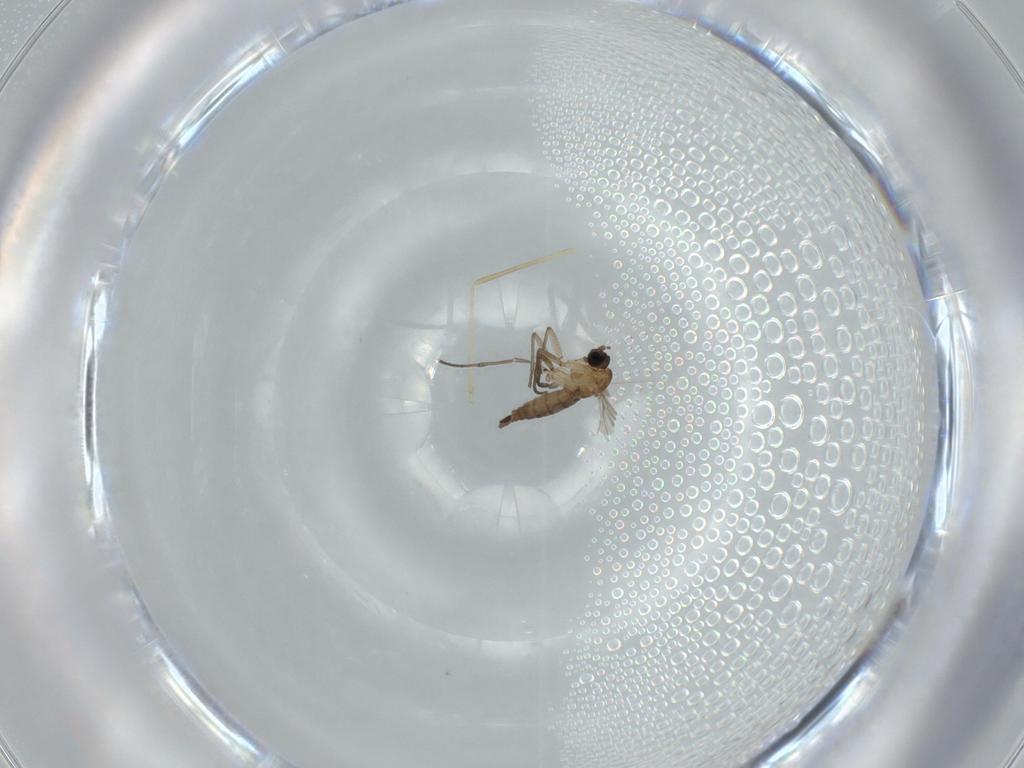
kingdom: Animalia
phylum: Arthropoda
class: Insecta
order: Diptera
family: Sciaridae
